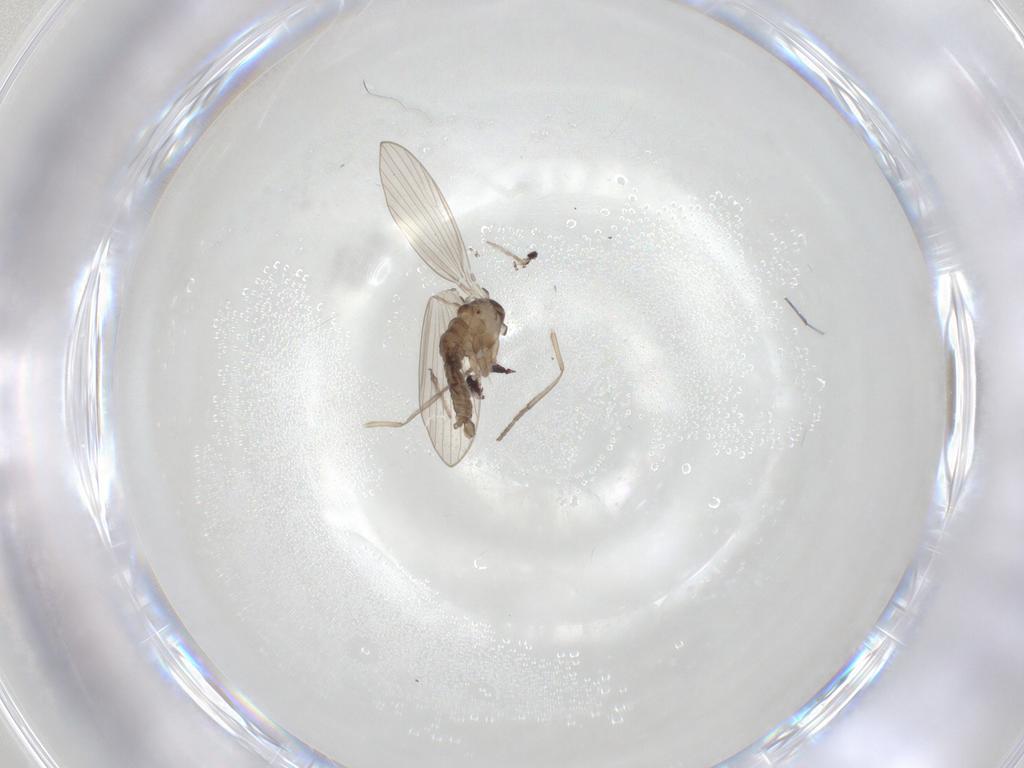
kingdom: Animalia
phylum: Arthropoda
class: Insecta
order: Diptera
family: Psychodidae
